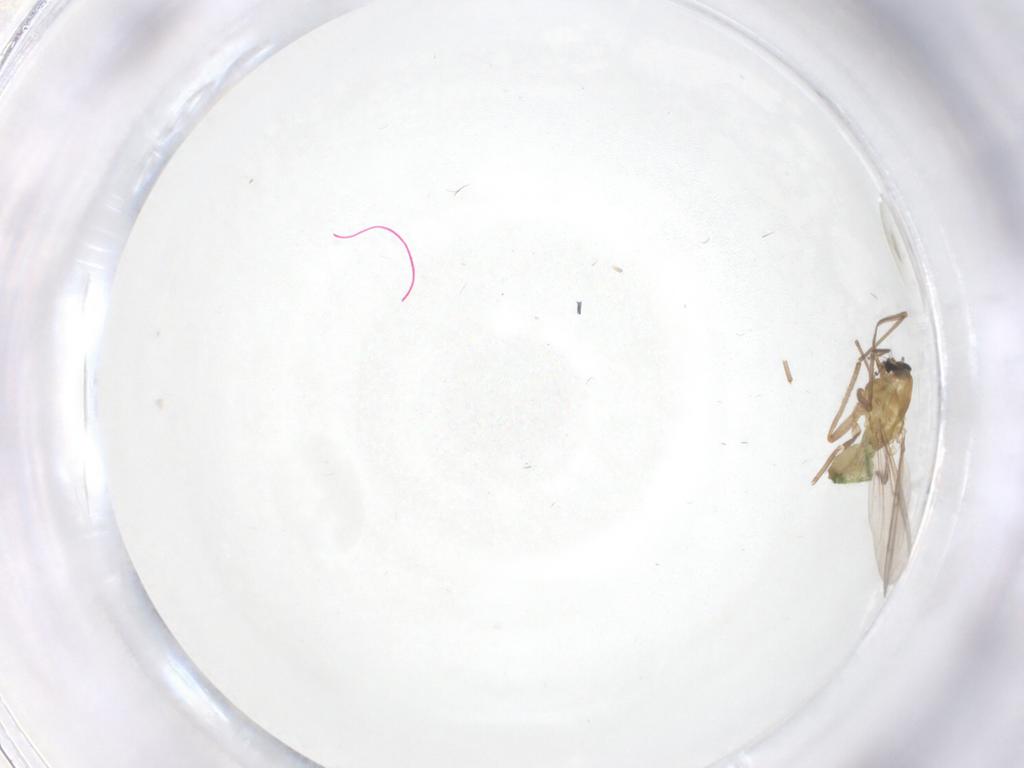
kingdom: Animalia
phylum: Arthropoda
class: Insecta
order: Diptera
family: Chironomidae
